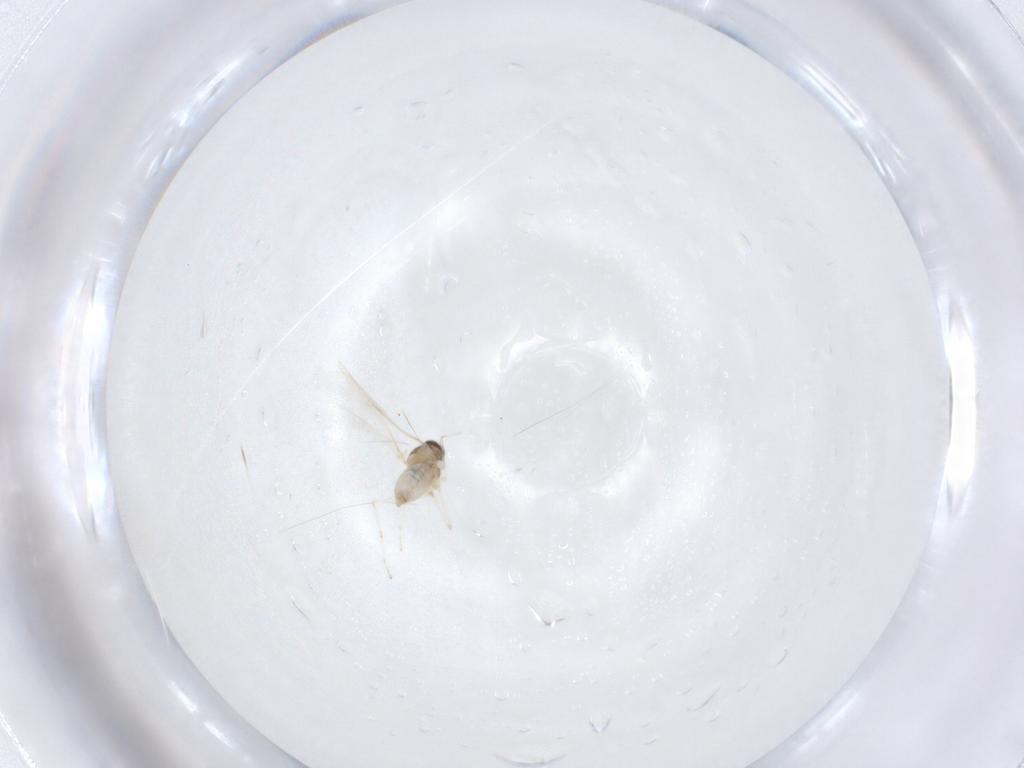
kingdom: Animalia
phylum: Arthropoda
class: Insecta
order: Diptera
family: Cecidomyiidae
